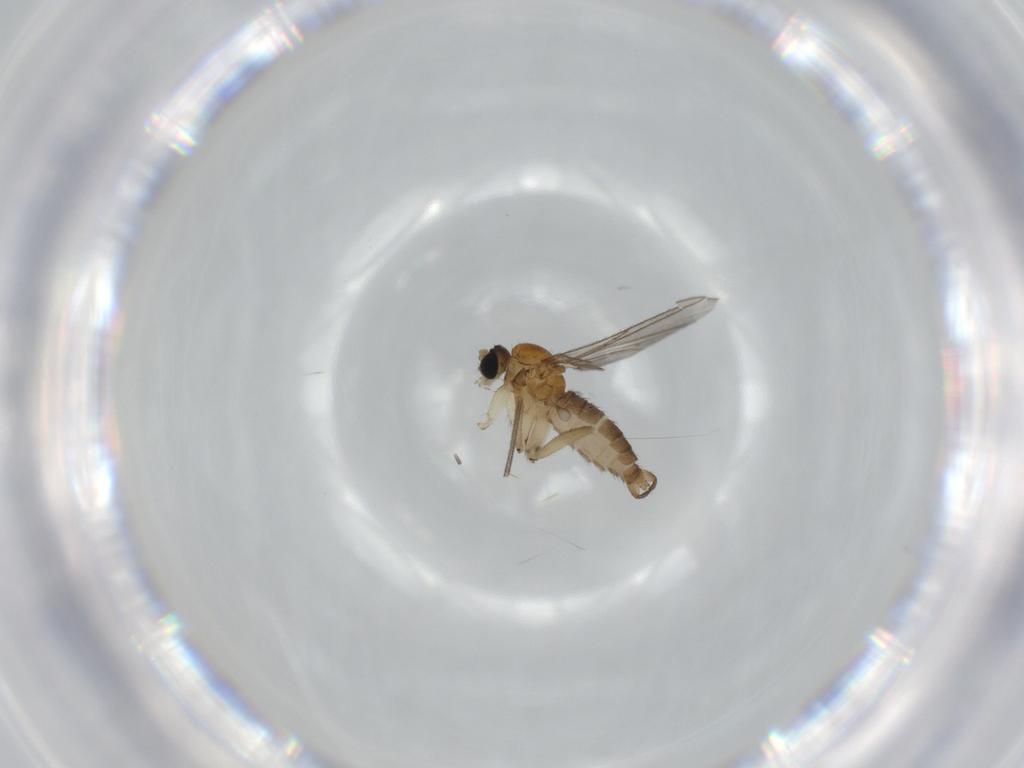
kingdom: Animalia
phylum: Arthropoda
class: Insecta
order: Diptera
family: Sciaridae
